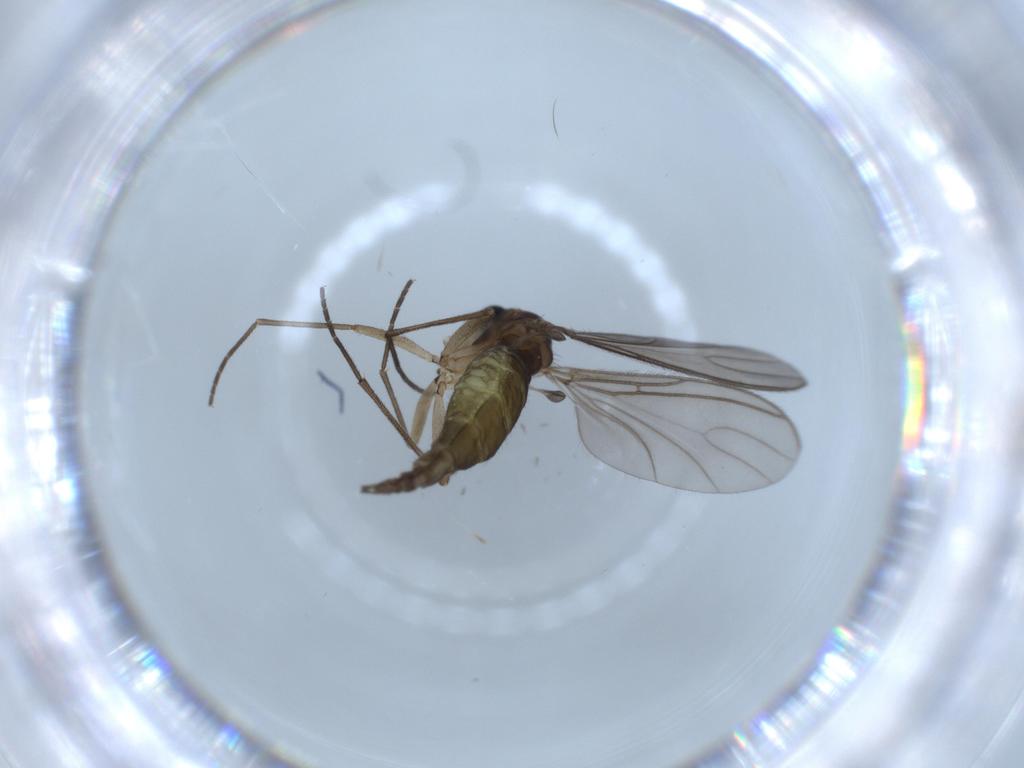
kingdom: Animalia
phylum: Arthropoda
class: Insecta
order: Diptera
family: Sciaridae
